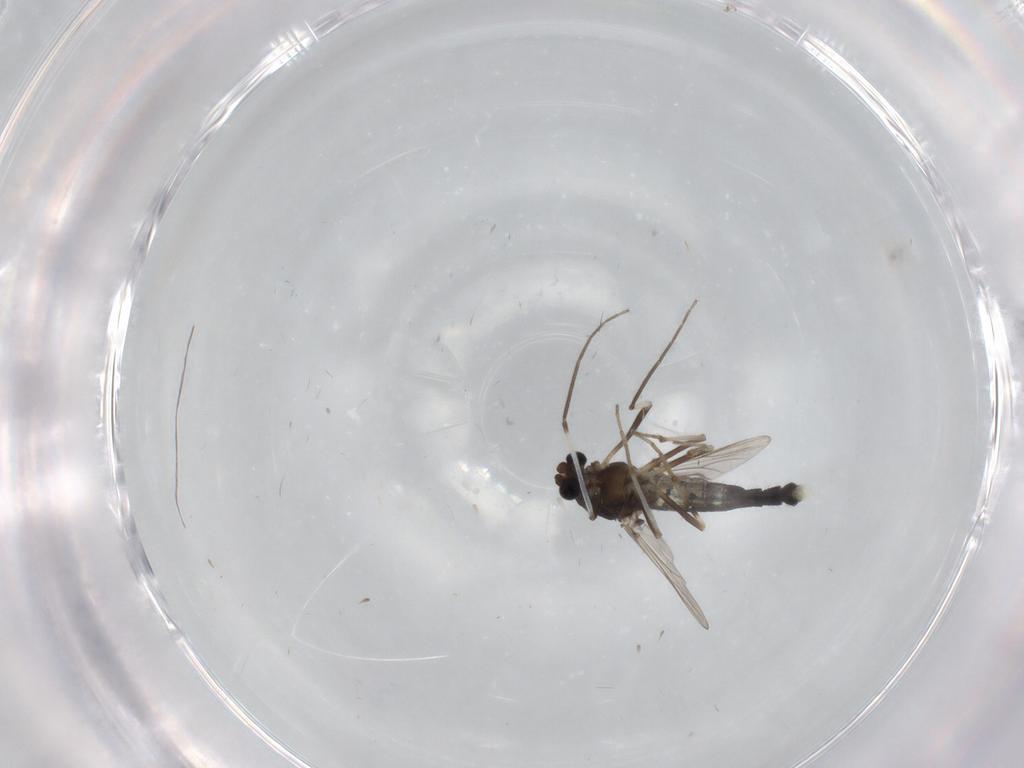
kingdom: Animalia
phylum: Arthropoda
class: Insecta
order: Diptera
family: Chironomidae
